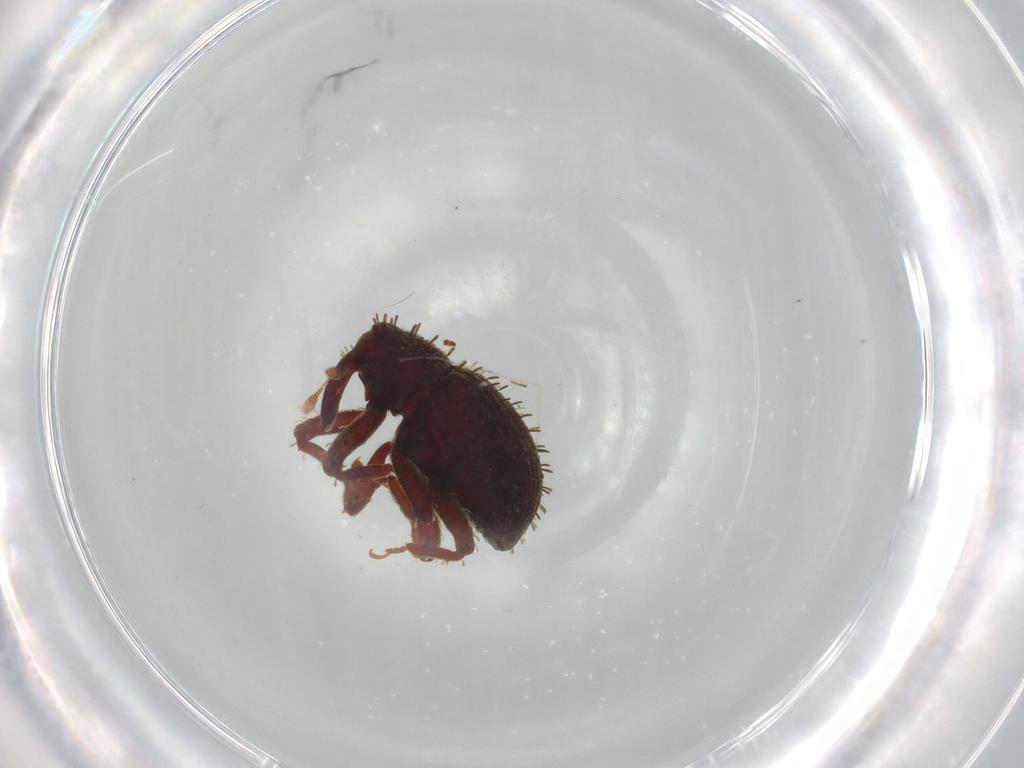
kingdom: Animalia
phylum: Arthropoda
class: Insecta
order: Coleoptera
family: Curculionidae
